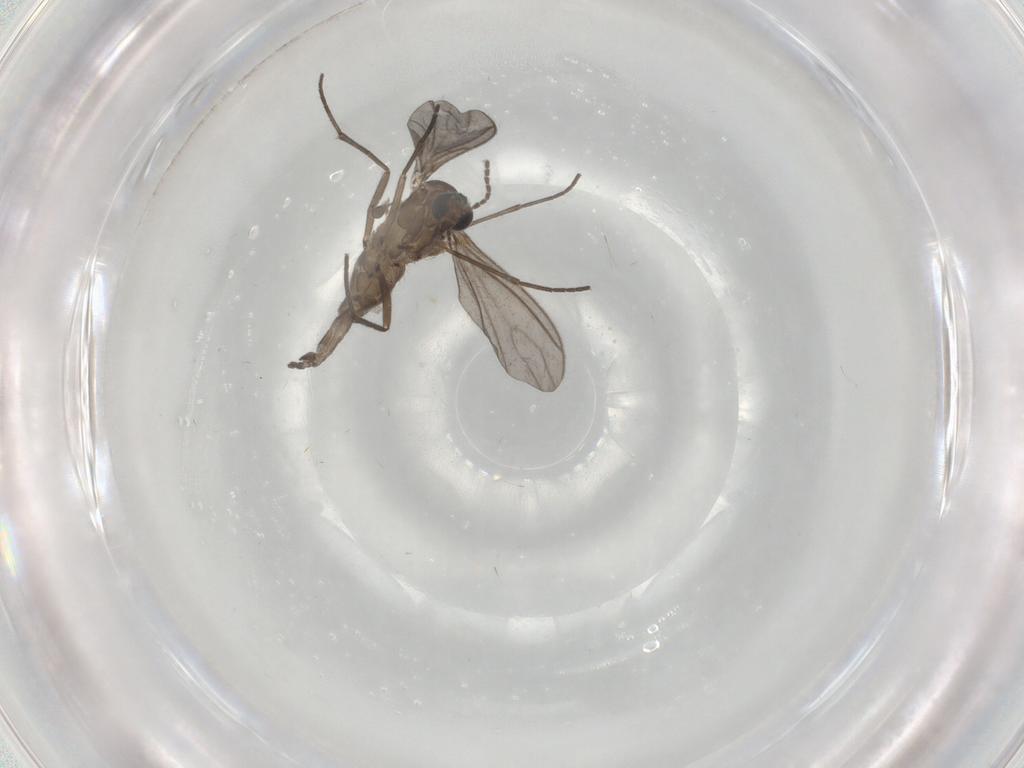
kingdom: Animalia
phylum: Arthropoda
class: Insecta
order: Diptera
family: Sciaridae
